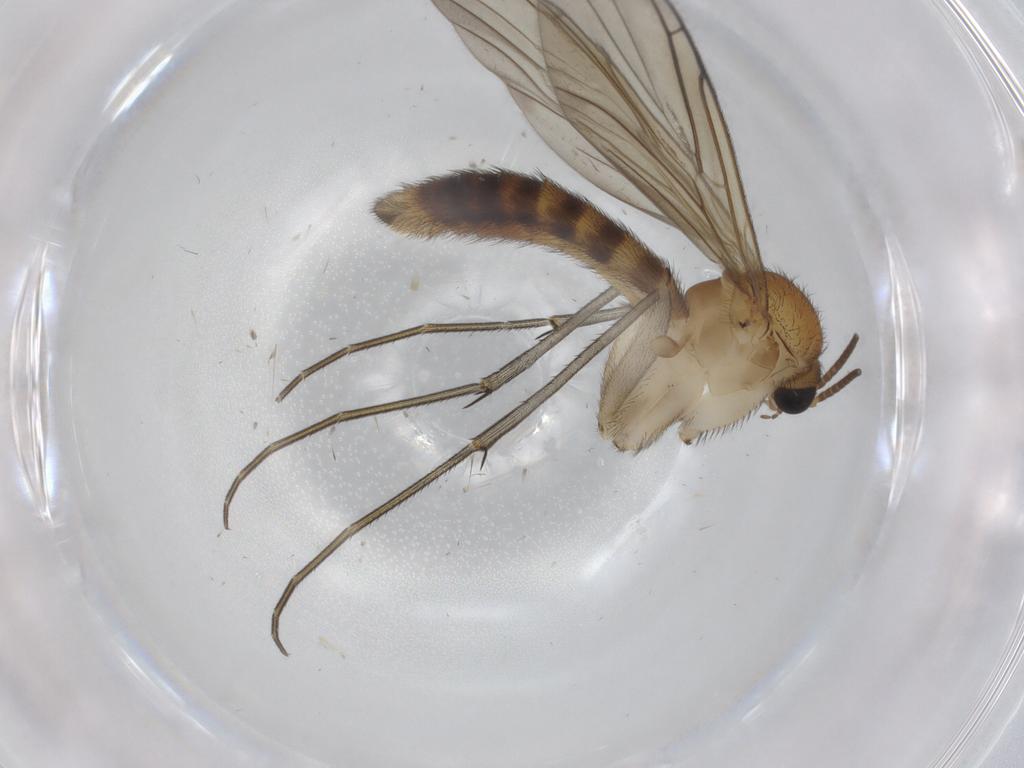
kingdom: Animalia
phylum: Arthropoda
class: Insecta
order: Diptera
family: Keroplatidae
